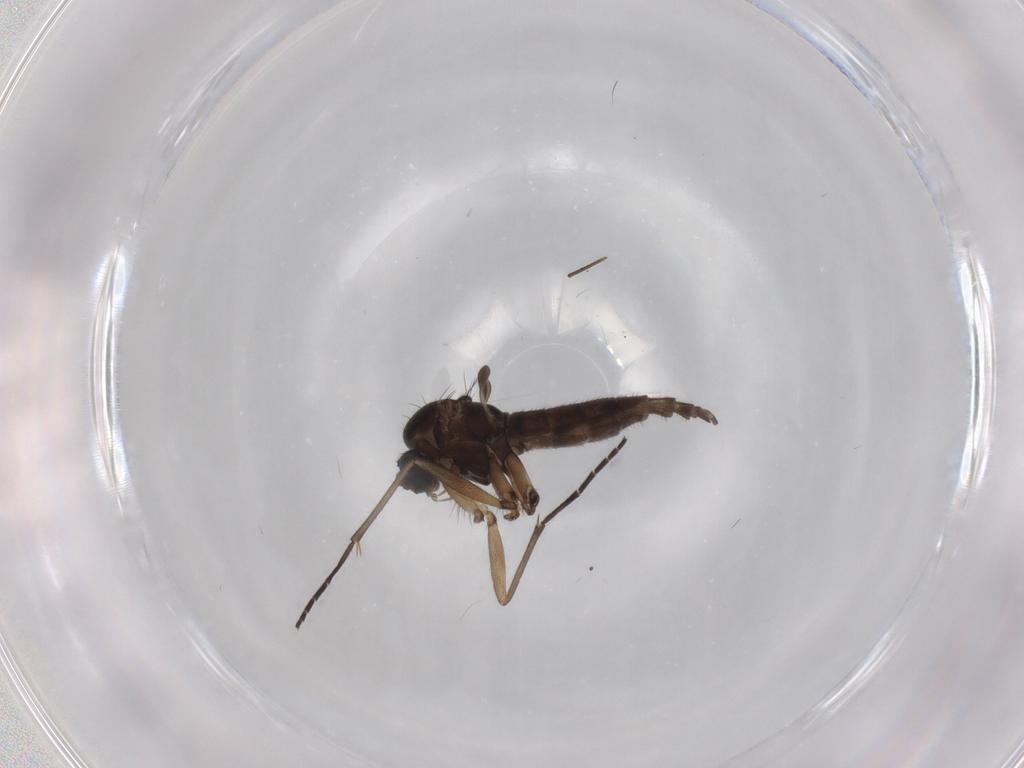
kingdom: Animalia
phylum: Arthropoda
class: Insecta
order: Diptera
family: Sciaridae
